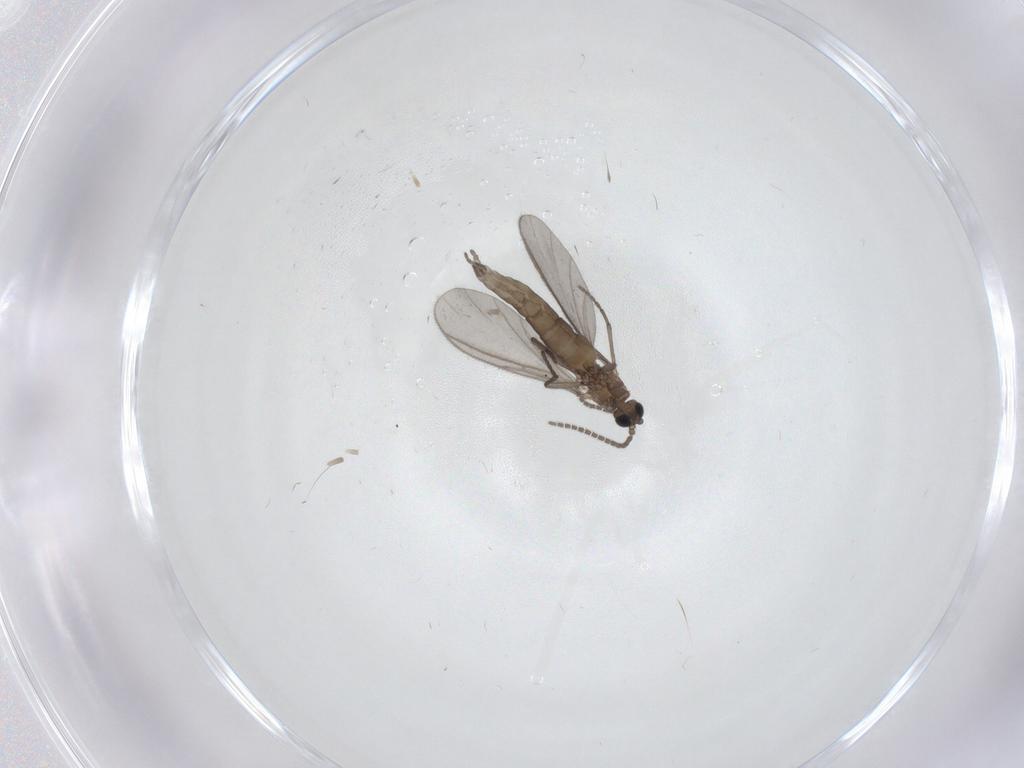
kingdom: Animalia
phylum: Arthropoda
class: Insecta
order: Diptera
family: Sciaridae
